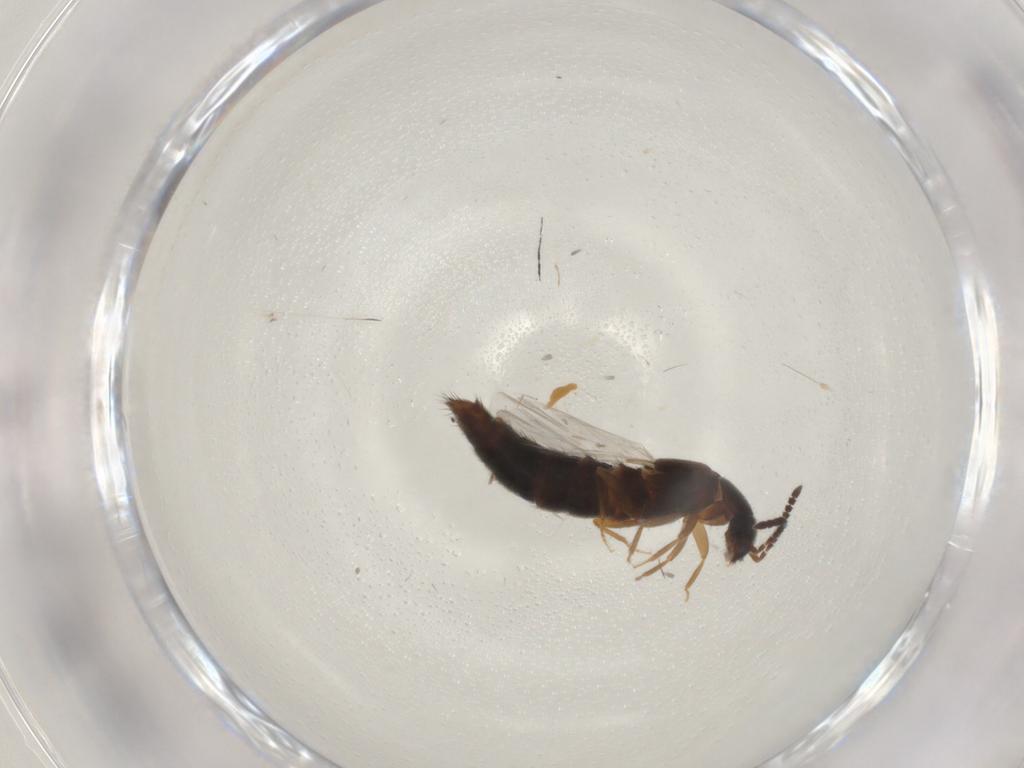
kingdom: Animalia
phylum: Arthropoda
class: Insecta
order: Coleoptera
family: Staphylinidae
